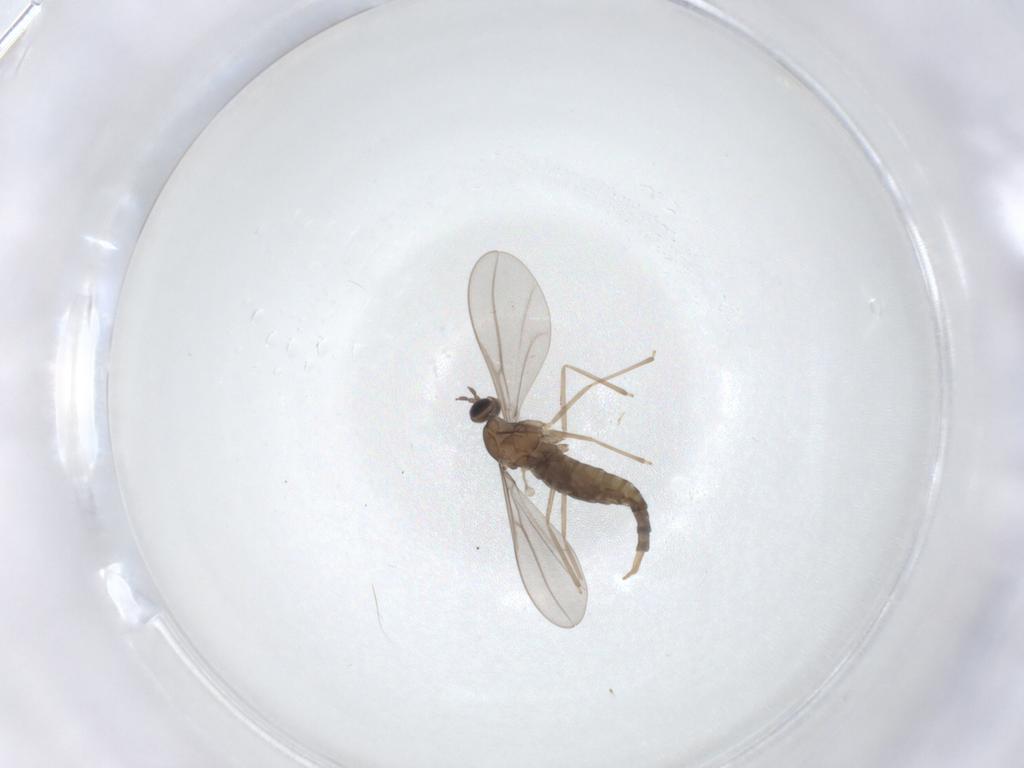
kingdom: Animalia
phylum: Arthropoda
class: Insecta
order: Diptera
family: Cecidomyiidae
